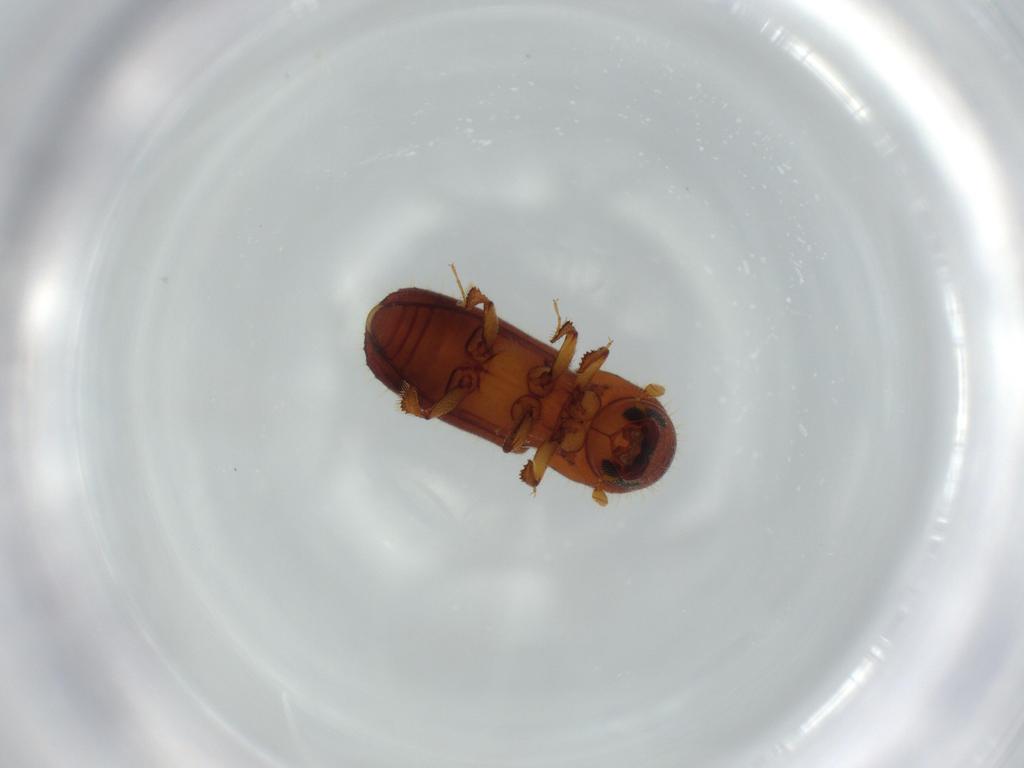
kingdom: Animalia
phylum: Arthropoda
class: Insecta
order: Coleoptera
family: Curculionidae
